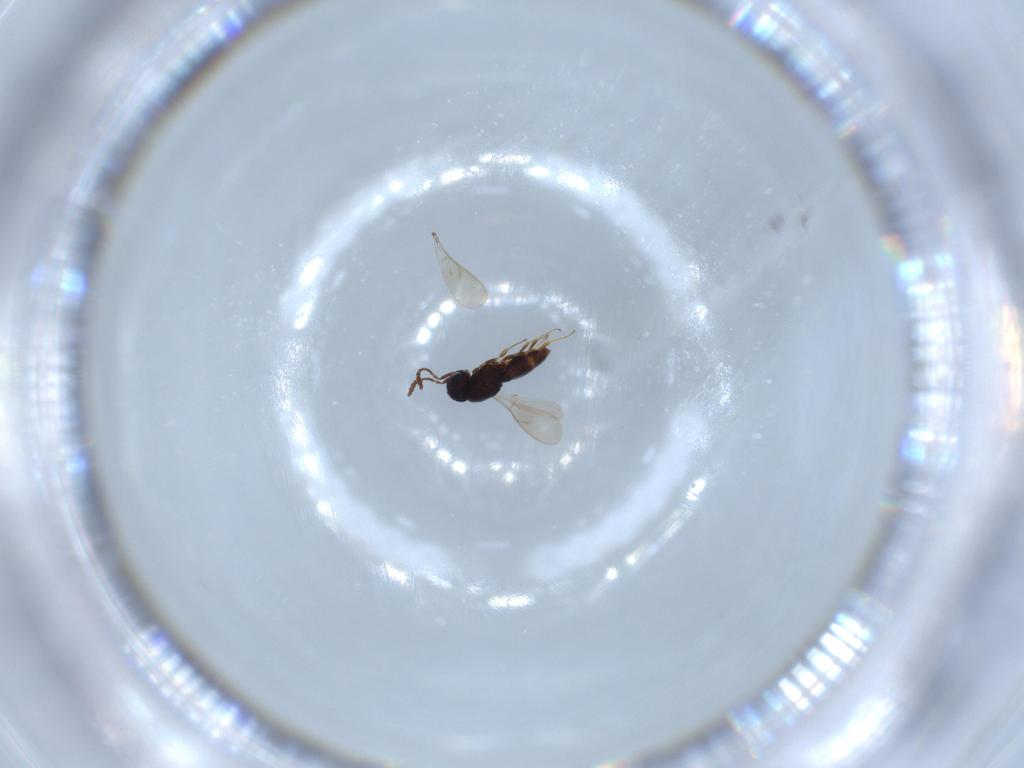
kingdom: Animalia
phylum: Arthropoda
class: Insecta
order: Hymenoptera
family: Scelionidae
